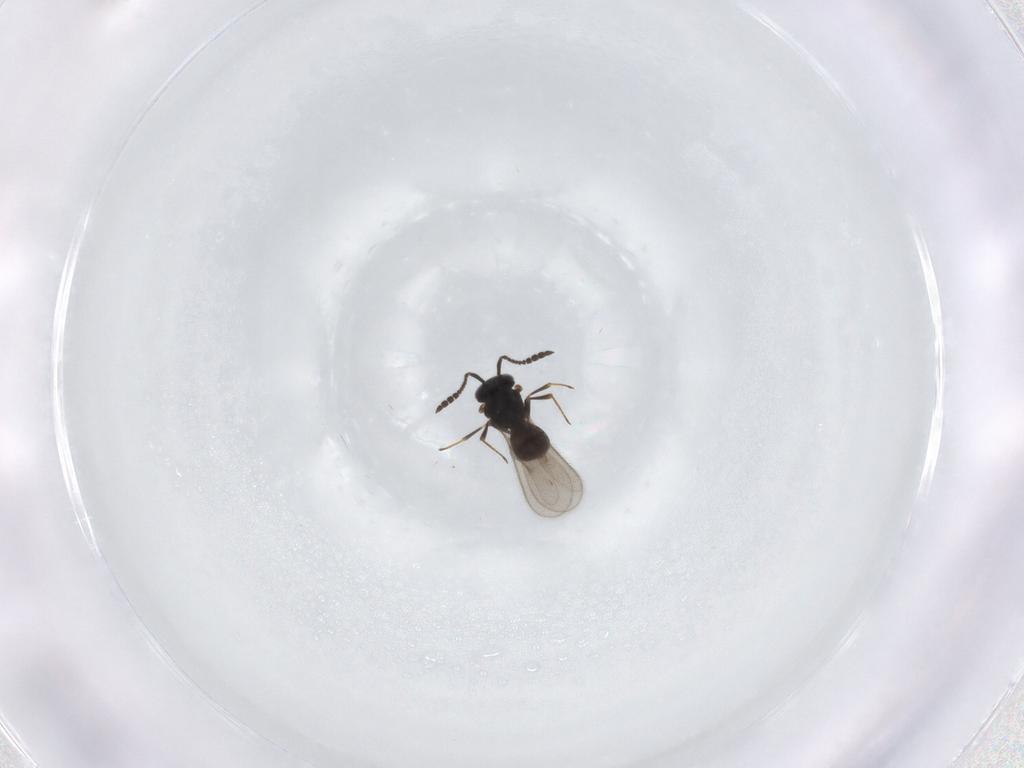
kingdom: Animalia
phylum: Arthropoda
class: Insecta
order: Hymenoptera
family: Scelionidae
